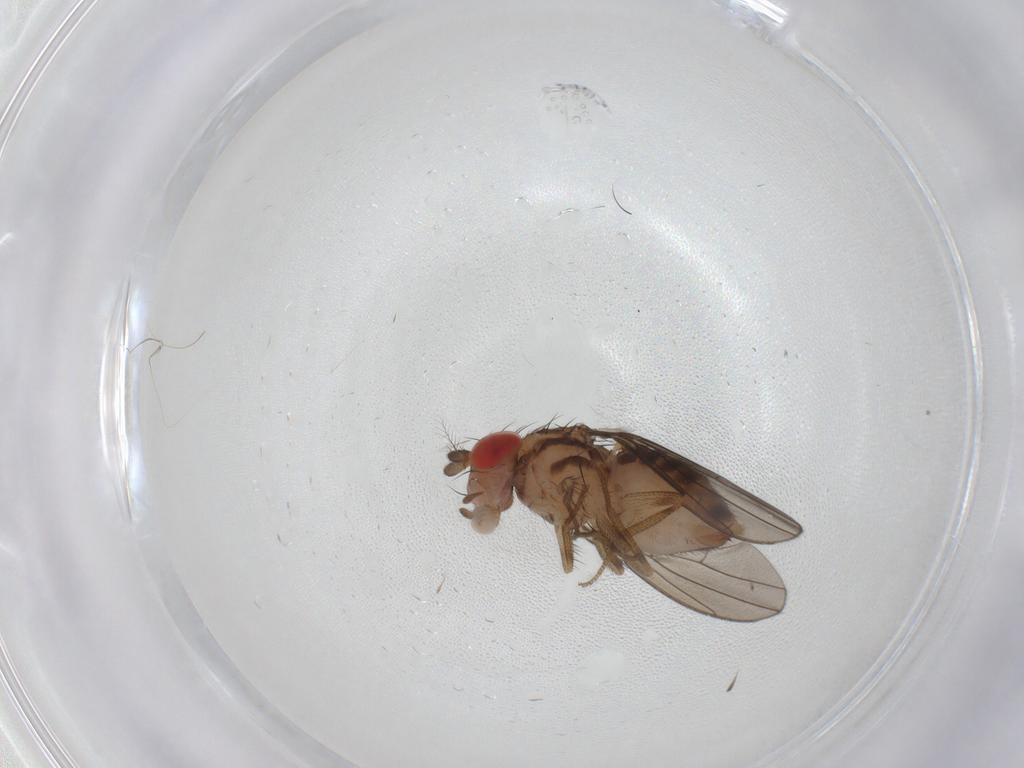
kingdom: Animalia
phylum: Arthropoda
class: Insecta
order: Diptera
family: Drosophilidae
